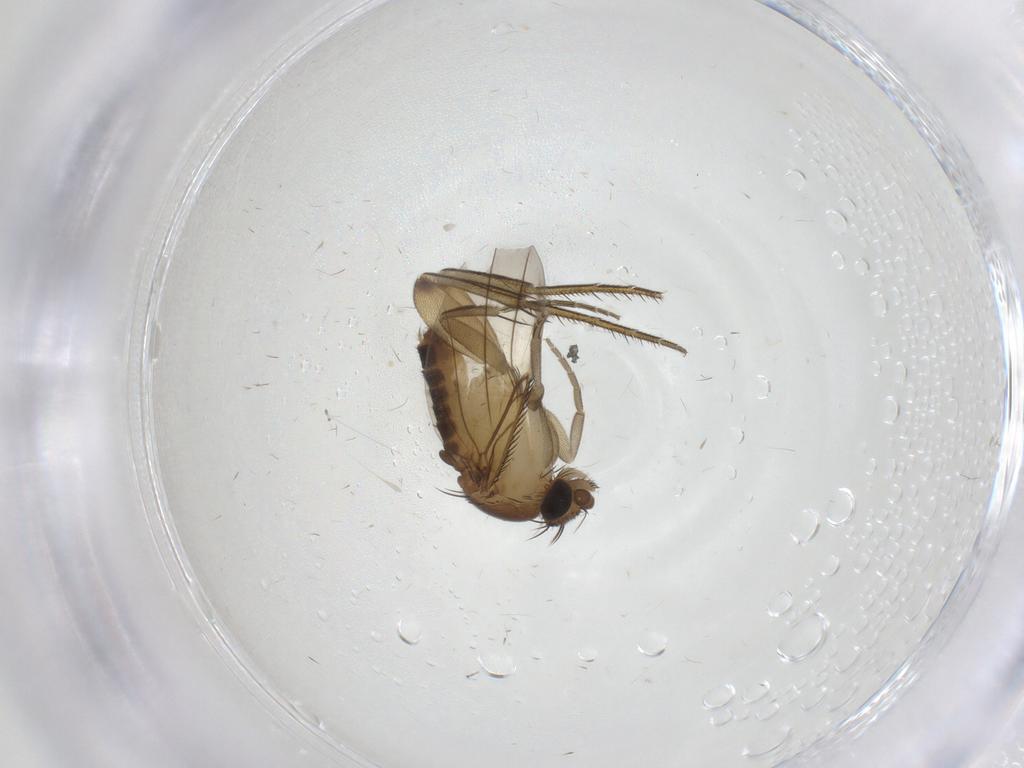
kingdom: Animalia
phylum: Arthropoda
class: Insecta
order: Diptera
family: Phoridae
